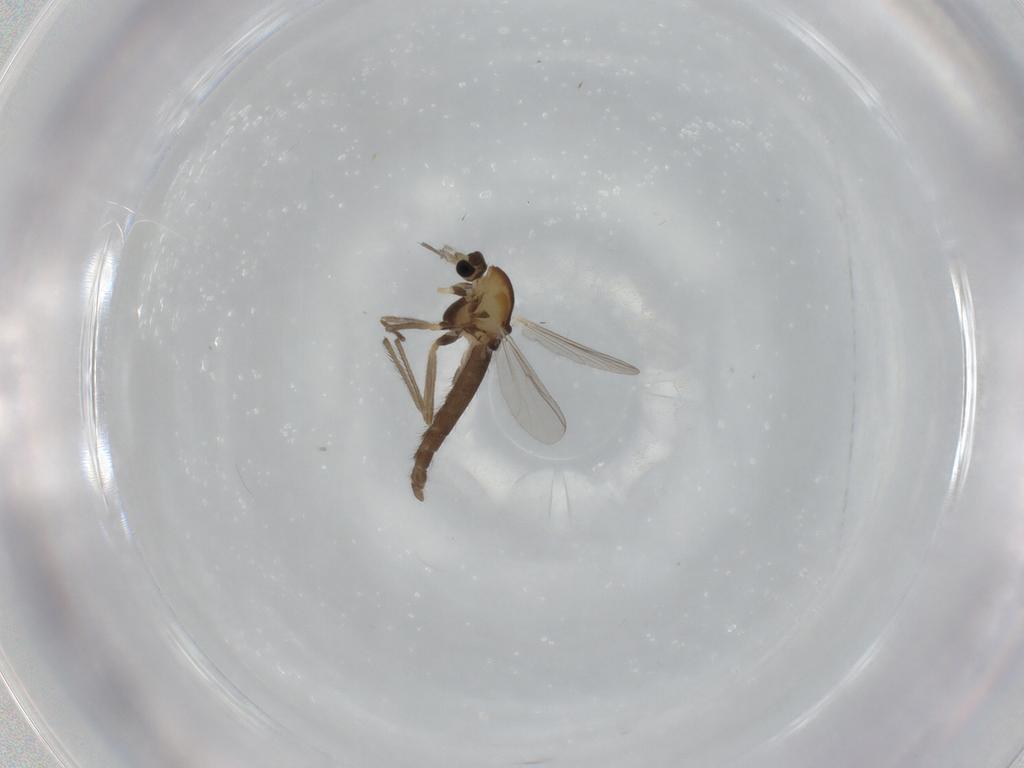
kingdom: Animalia
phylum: Arthropoda
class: Insecta
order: Diptera
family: Chironomidae
